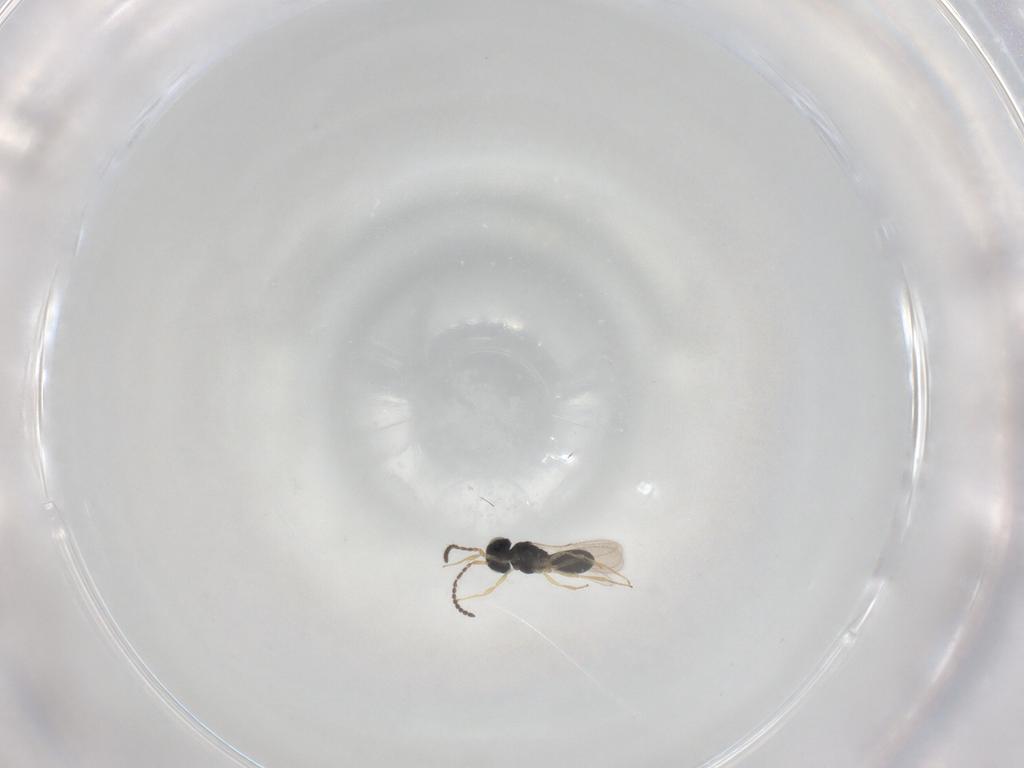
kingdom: Animalia
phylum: Arthropoda
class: Insecta
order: Hymenoptera
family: Scelionidae
